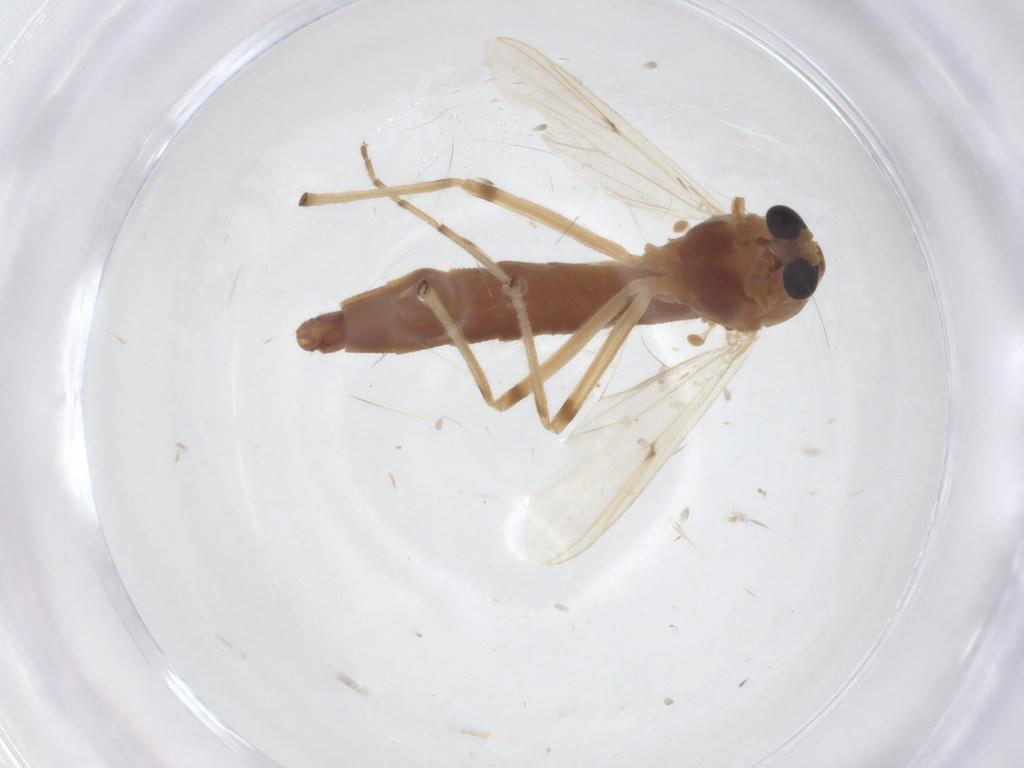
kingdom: Animalia
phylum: Arthropoda
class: Insecta
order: Diptera
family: Chironomidae
